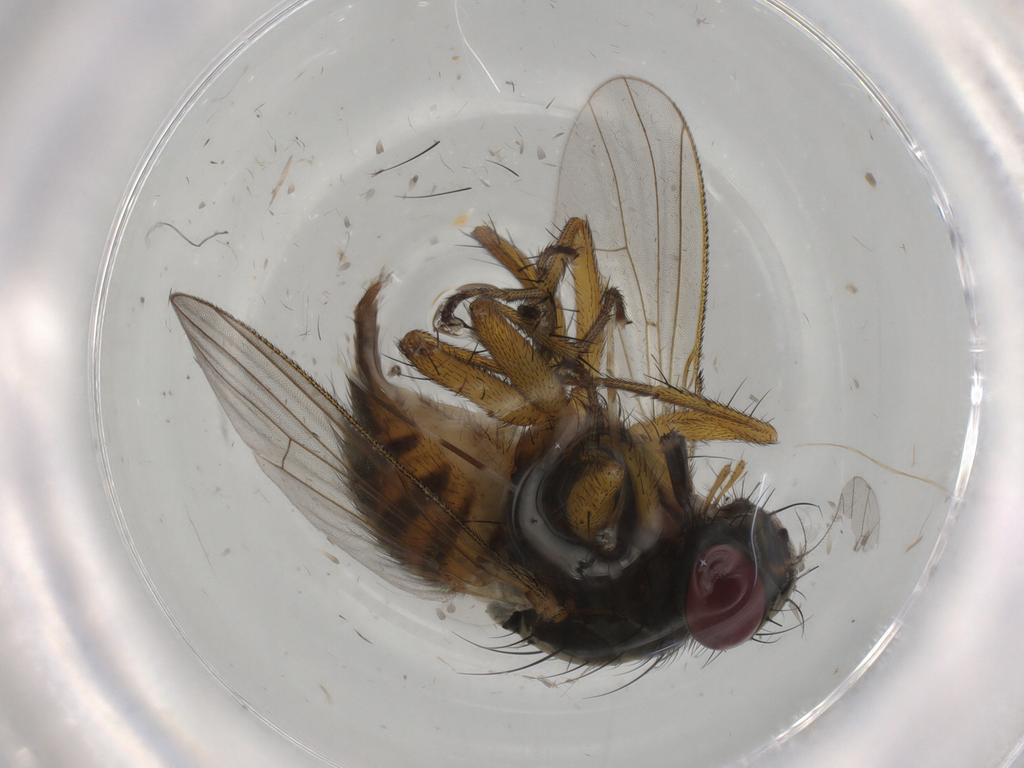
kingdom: Animalia
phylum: Arthropoda
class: Insecta
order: Diptera
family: Muscidae
